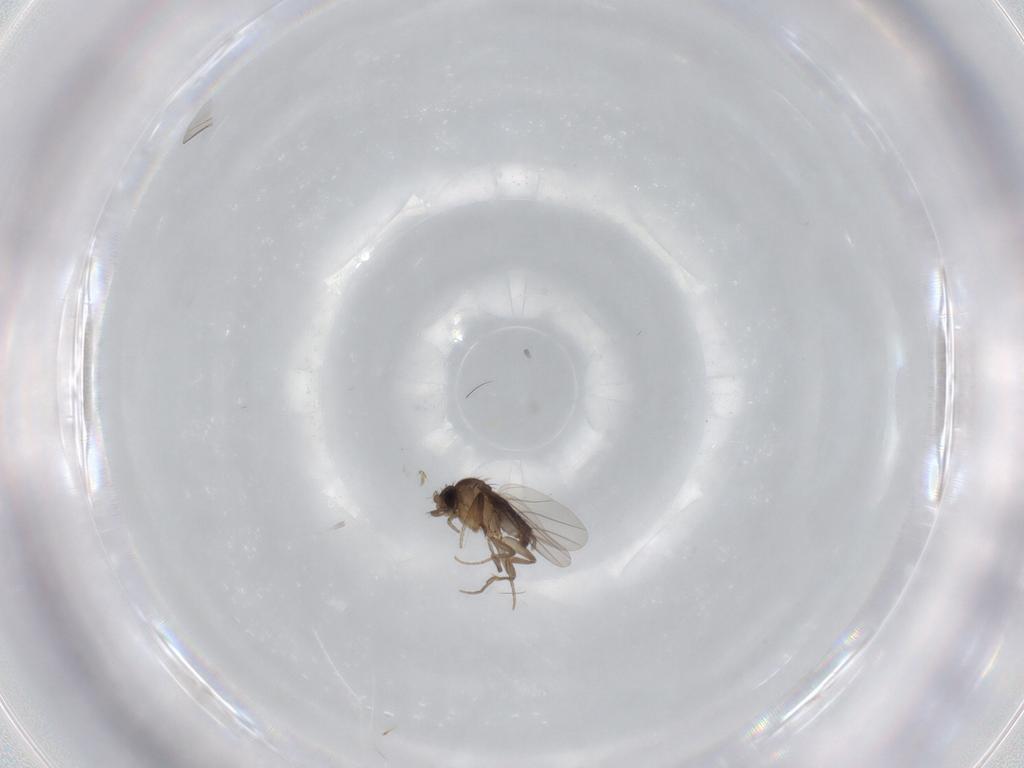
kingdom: Animalia
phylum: Arthropoda
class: Insecta
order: Diptera
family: Phoridae
